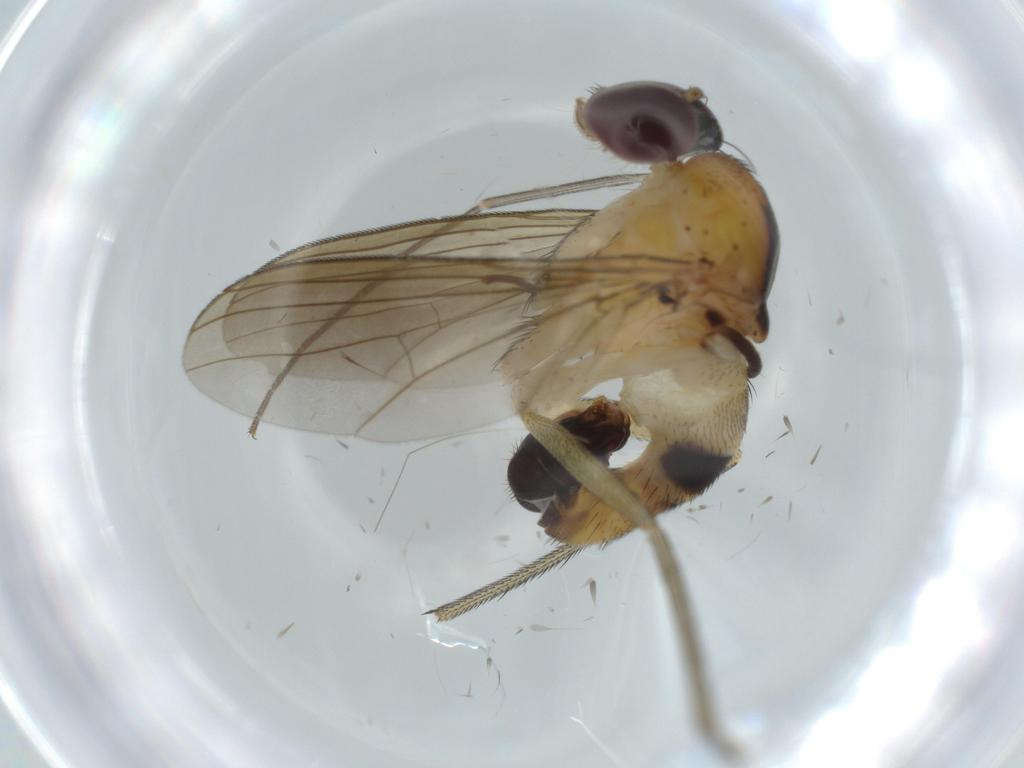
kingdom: Animalia
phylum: Arthropoda
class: Insecta
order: Diptera
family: Dolichopodidae
